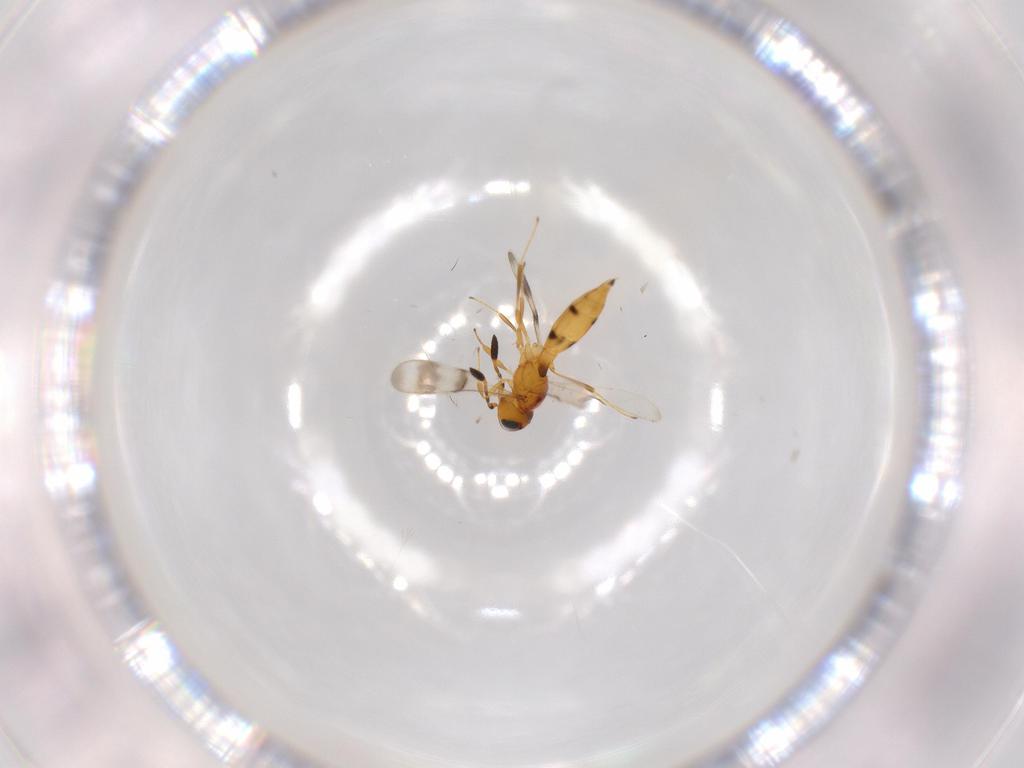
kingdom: Animalia
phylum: Arthropoda
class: Insecta
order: Hymenoptera
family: Scelionidae
